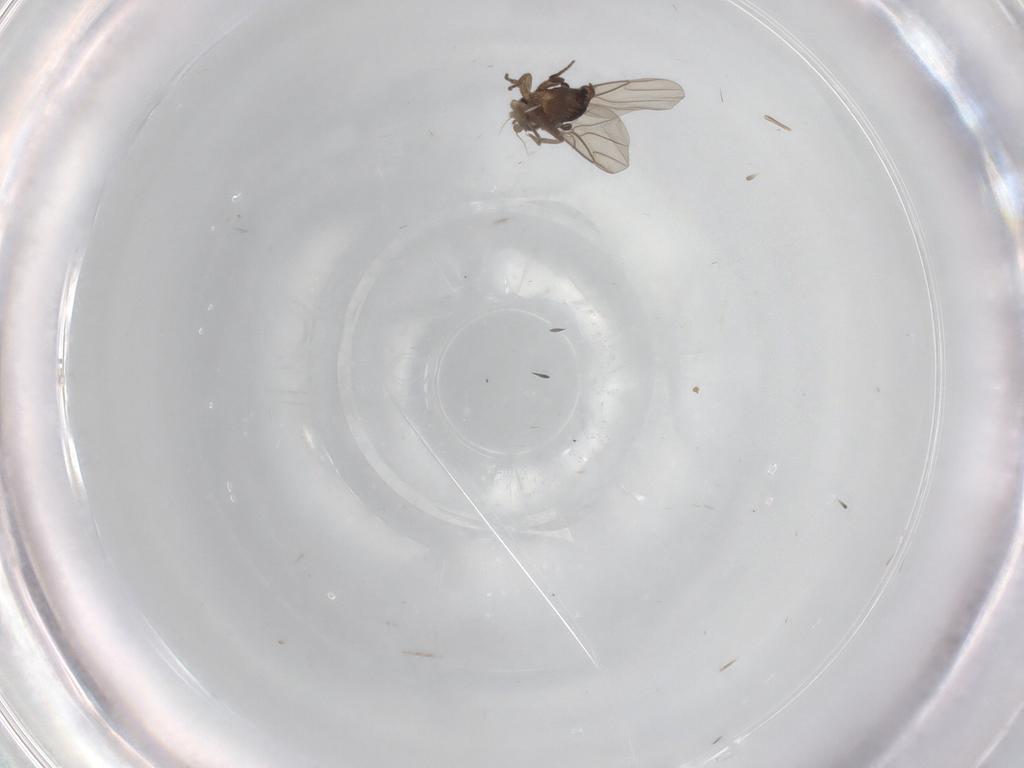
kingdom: Animalia
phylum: Arthropoda
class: Insecta
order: Diptera
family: Phoridae
